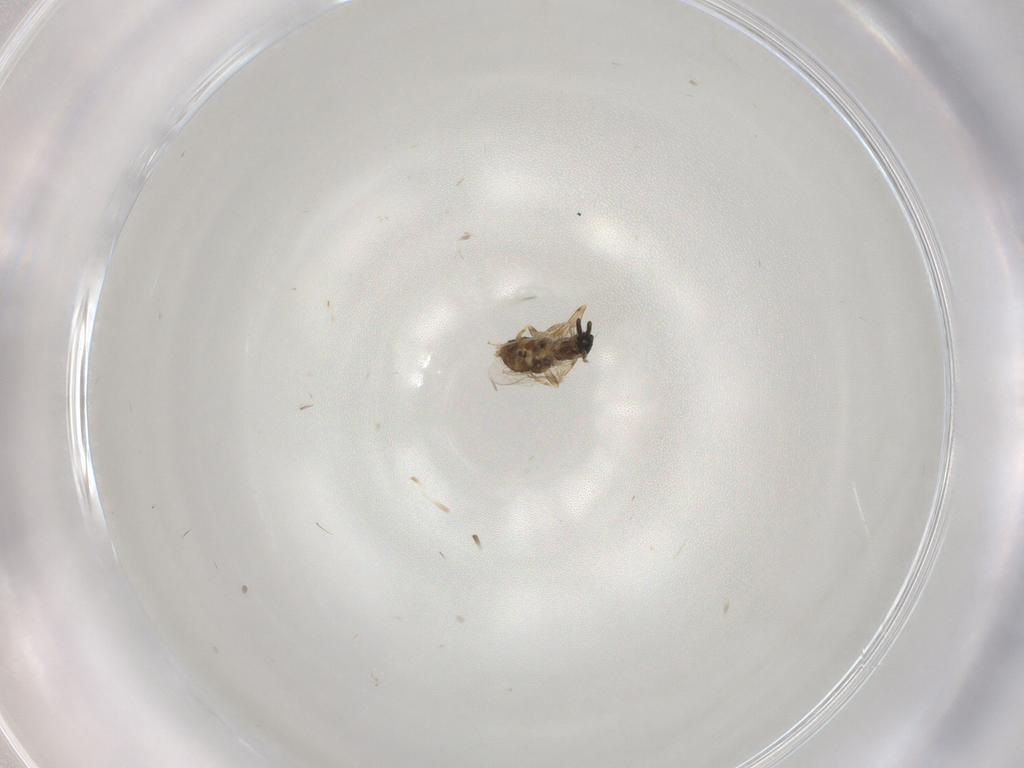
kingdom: Animalia
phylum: Arthropoda
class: Insecta
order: Diptera
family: Scatopsidae
